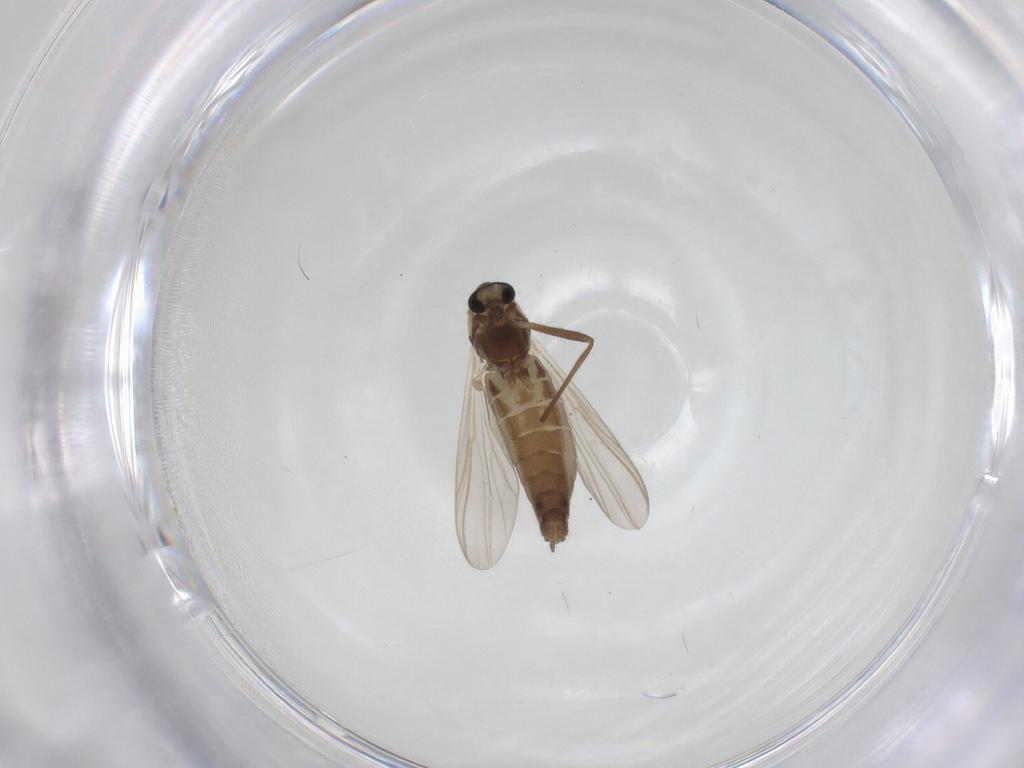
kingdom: Animalia
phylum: Arthropoda
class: Insecta
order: Diptera
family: Chironomidae
